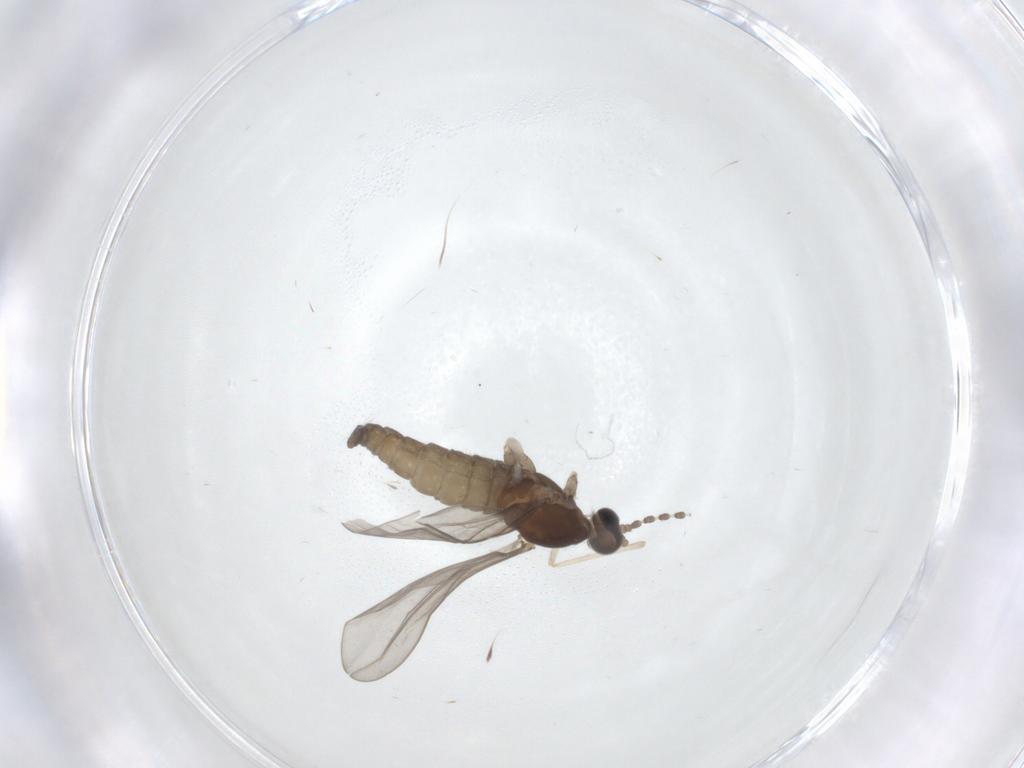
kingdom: Animalia
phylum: Arthropoda
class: Insecta
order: Diptera
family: Cecidomyiidae
